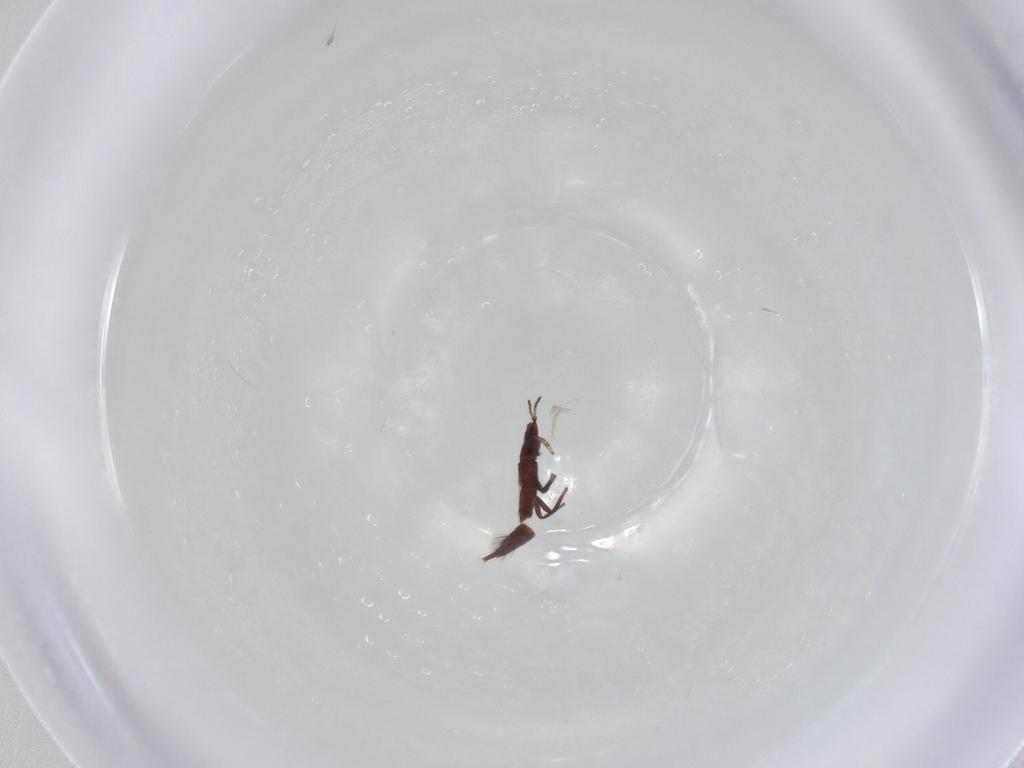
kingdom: Animalia
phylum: Arthropoda
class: Insecta
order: Thysanoptera
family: Phlaeothripidae
